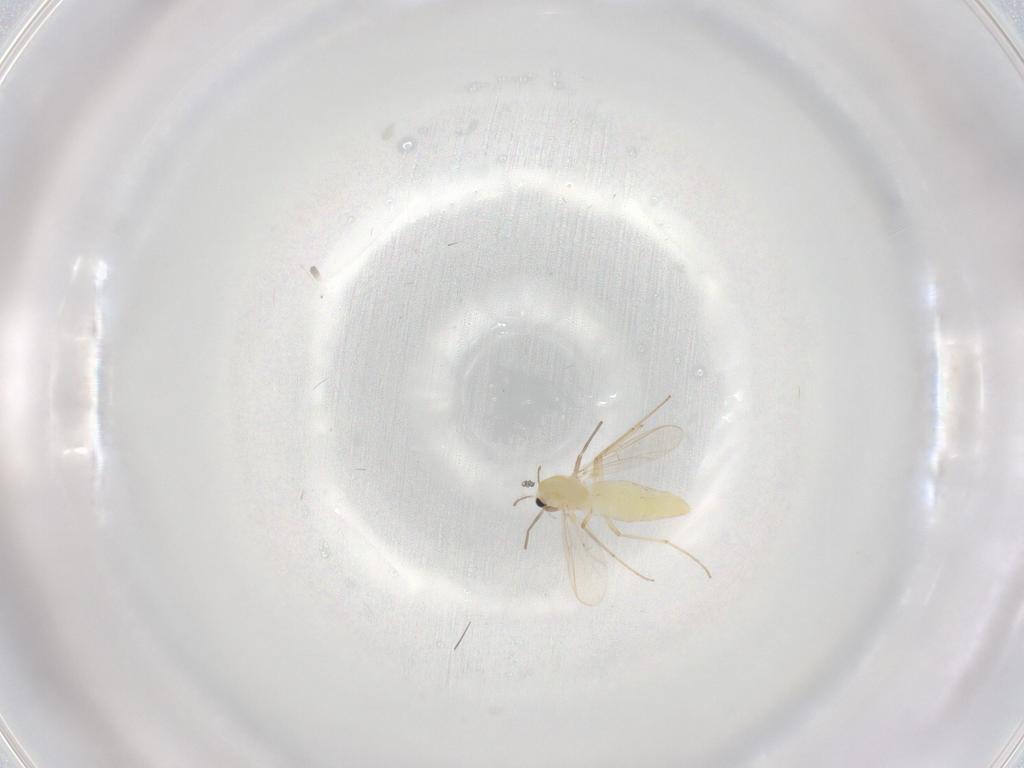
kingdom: Animalia
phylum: Arthropoda
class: Insecta
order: Diptera
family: Chironomidae
